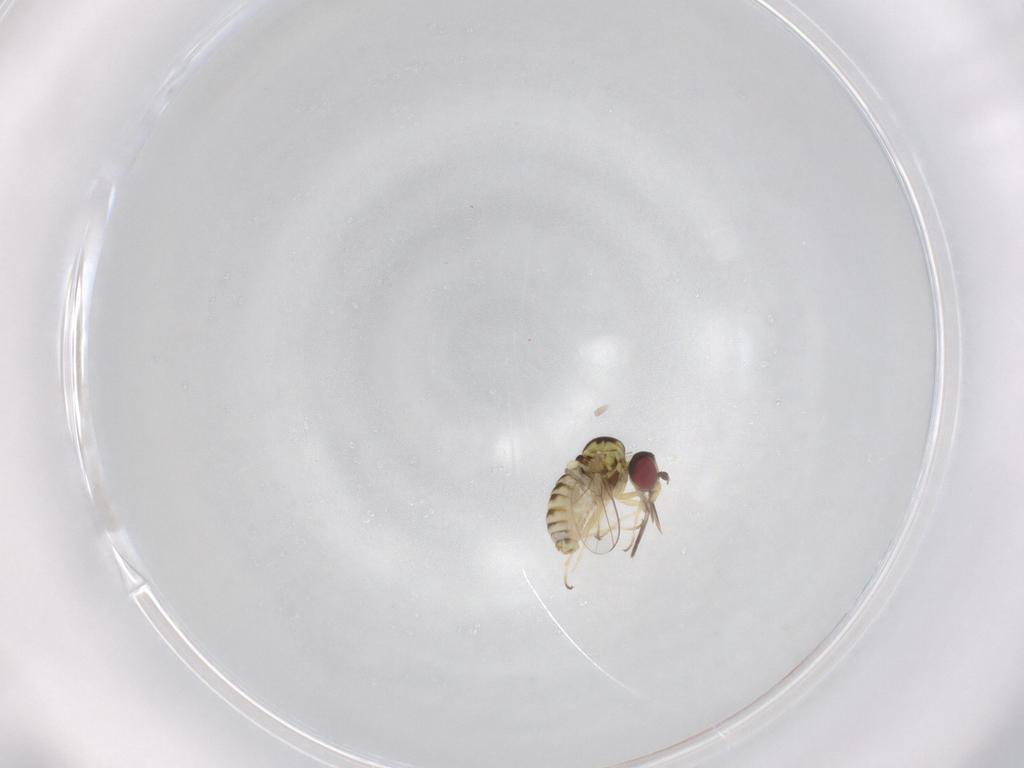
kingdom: Animalia
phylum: Arthropoda
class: Insecta
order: Diptera
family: Bombyliidae
